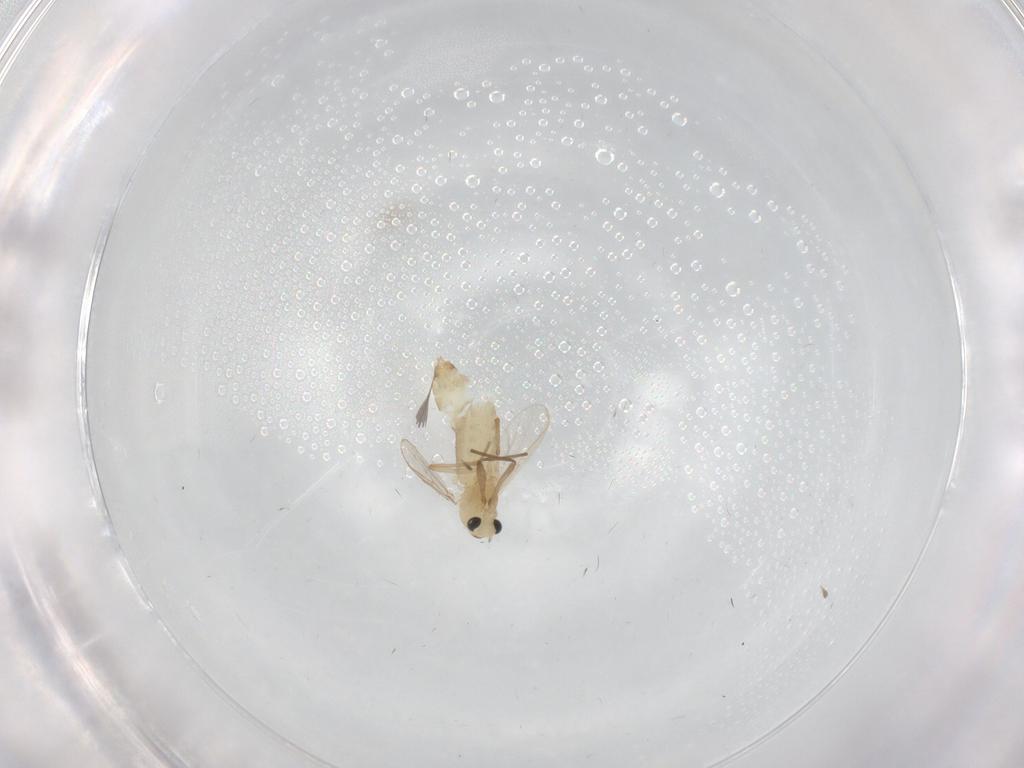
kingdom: Animalia
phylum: Arthropoda
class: Insecta
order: Diptera
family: Chironomidae
